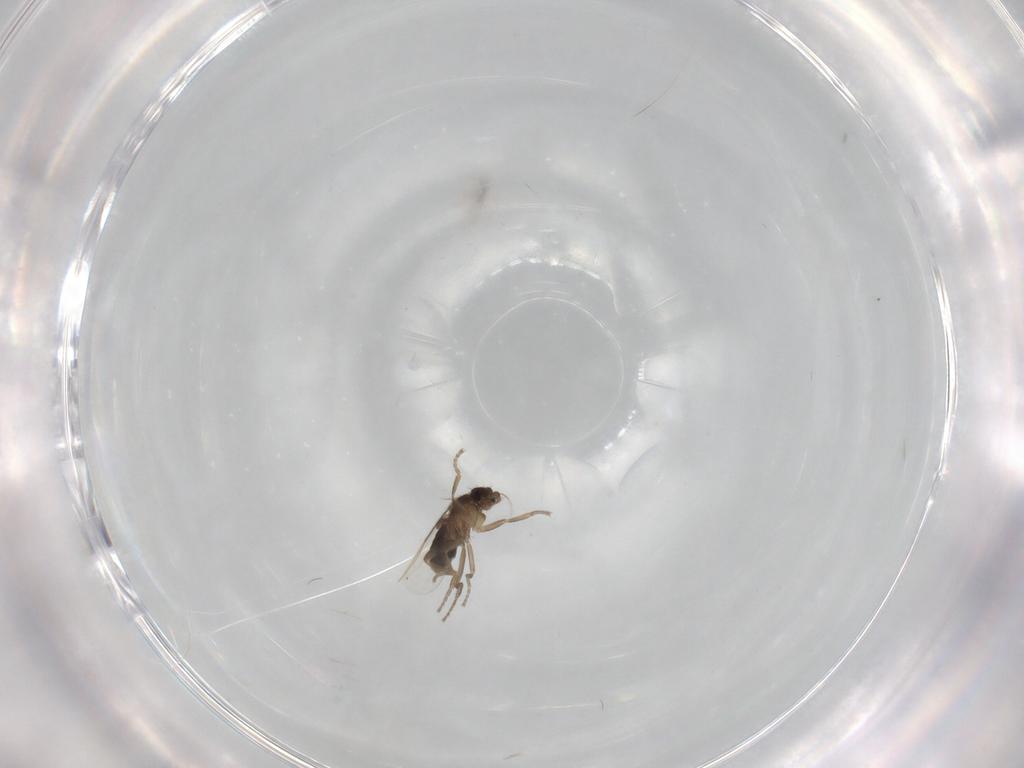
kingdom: Animalia
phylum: Arthropoda
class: Insecta
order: Diptera
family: Phoridae
